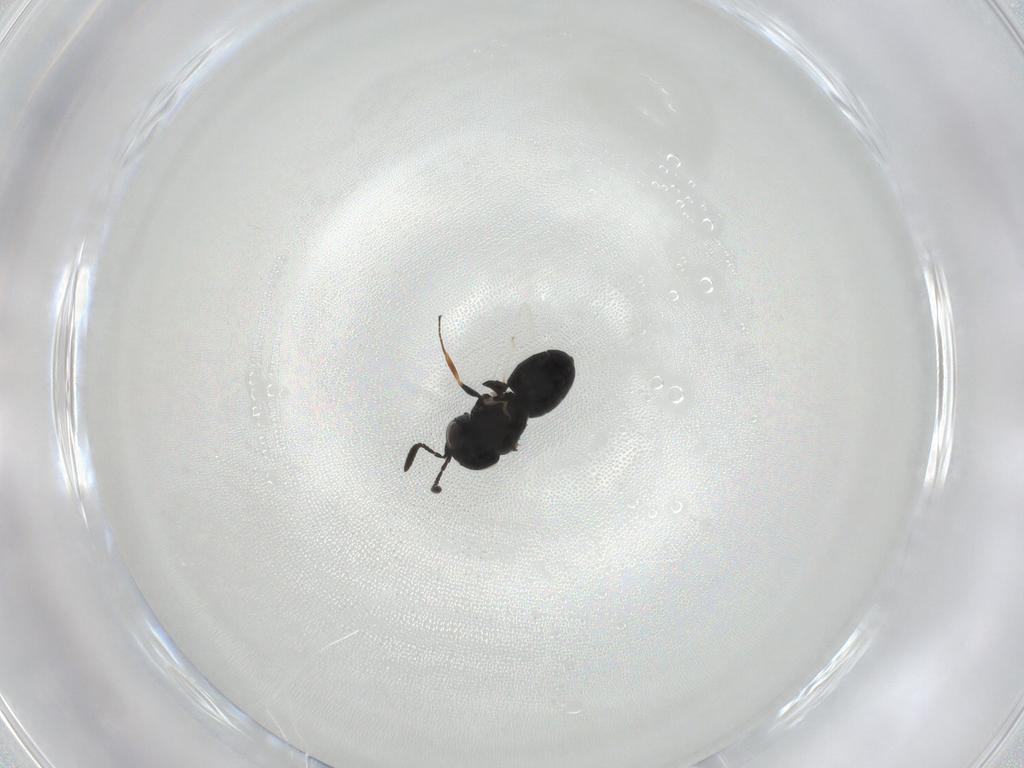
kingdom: Animalia
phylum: Arthropoda
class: Insecta
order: Hymenoptera
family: Scelionidae
